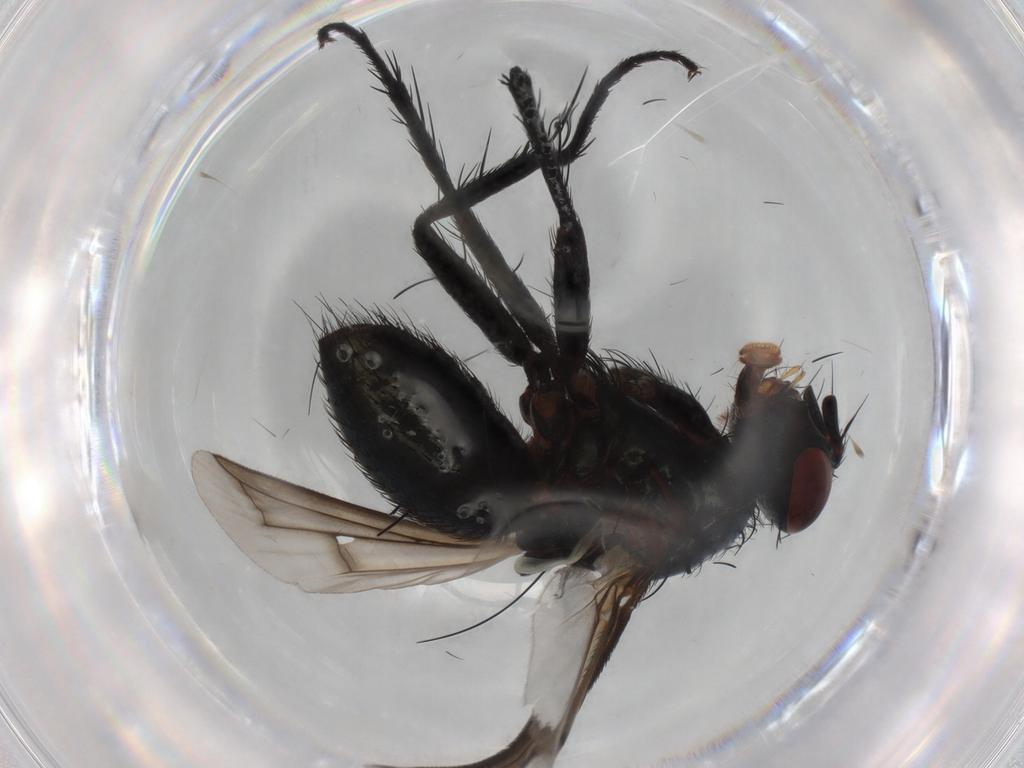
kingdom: Animalia
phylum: Arthropoda
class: Insecta
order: Diptera
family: Tachinidae
